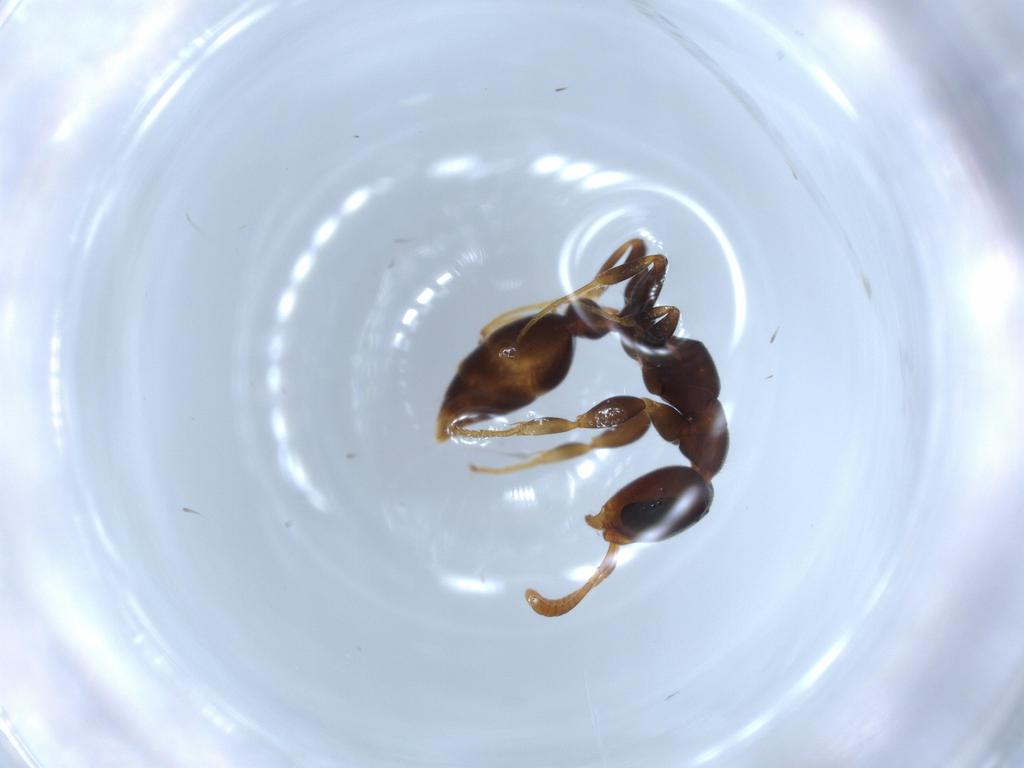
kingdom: Animalia
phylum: Arthropoda
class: Insecta
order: Hymenoptera
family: Formicidae
